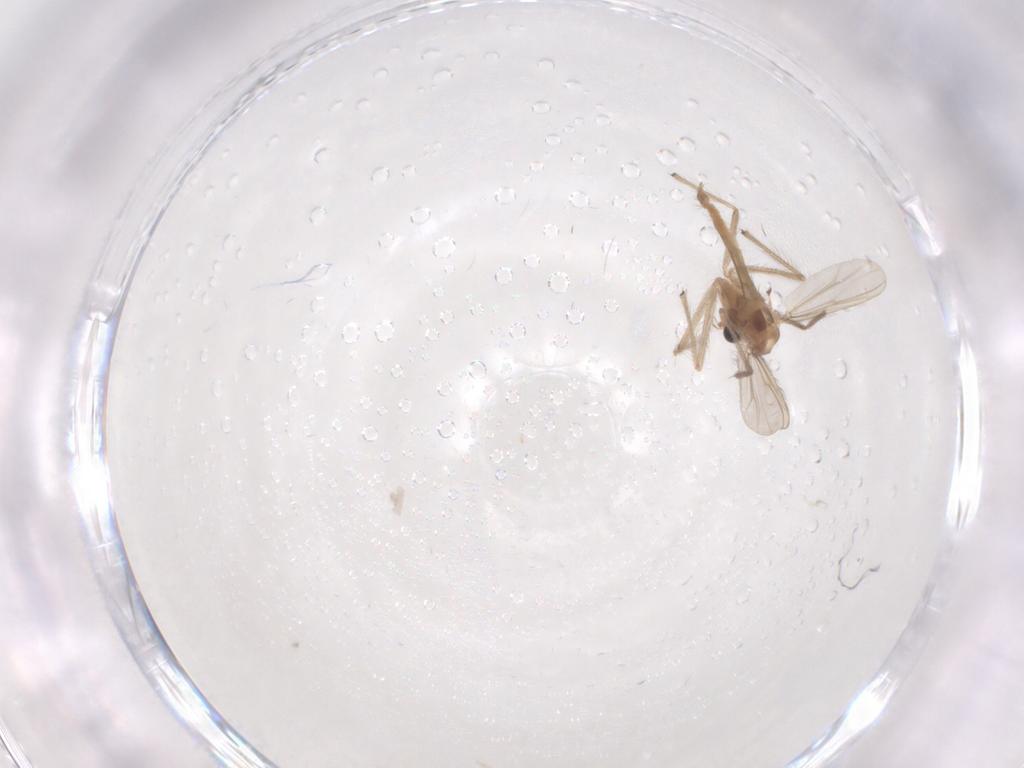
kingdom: Animalia
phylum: Arthropoda
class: Insecta
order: Diptera
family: Chironomidae
